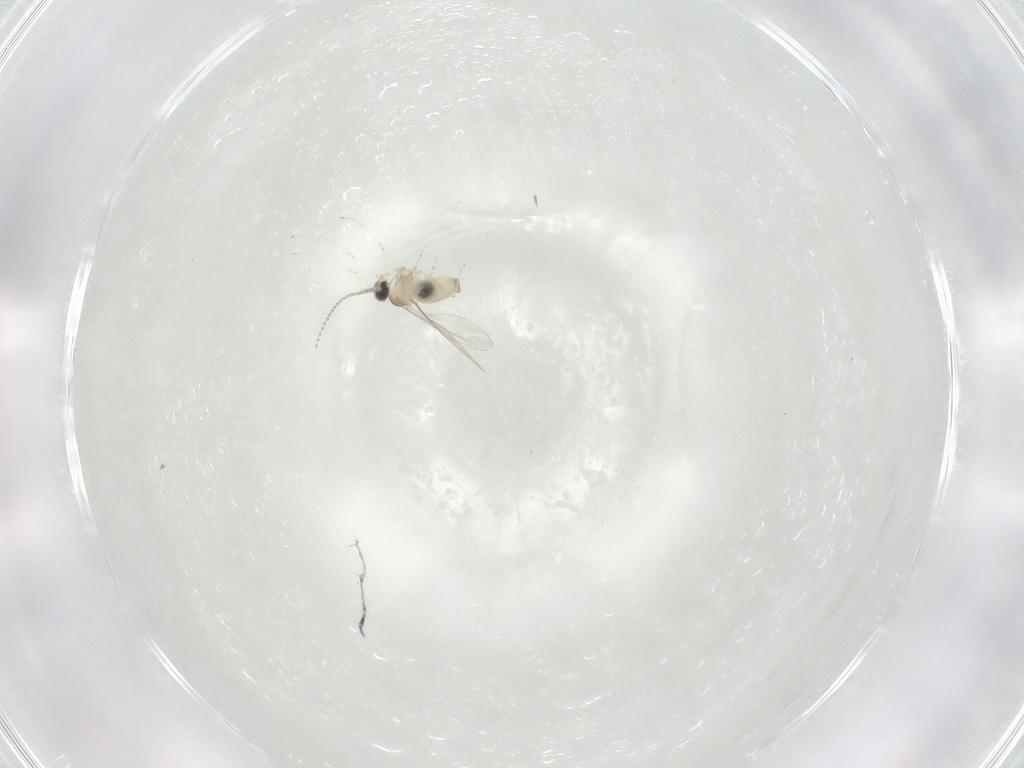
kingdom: Animalia
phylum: Arthropoda
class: Insecta
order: Diptera
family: Cecidomyiidae
